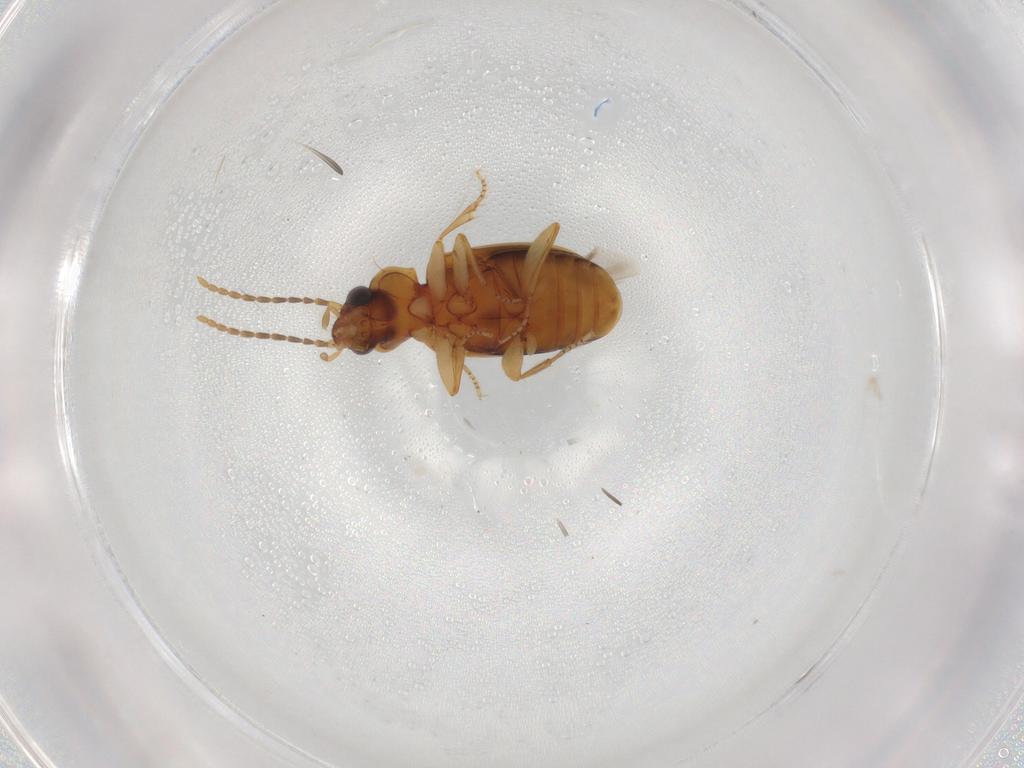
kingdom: Animalia
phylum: Arthropoda
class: Insecta
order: Coleoptera
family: Carabidae
